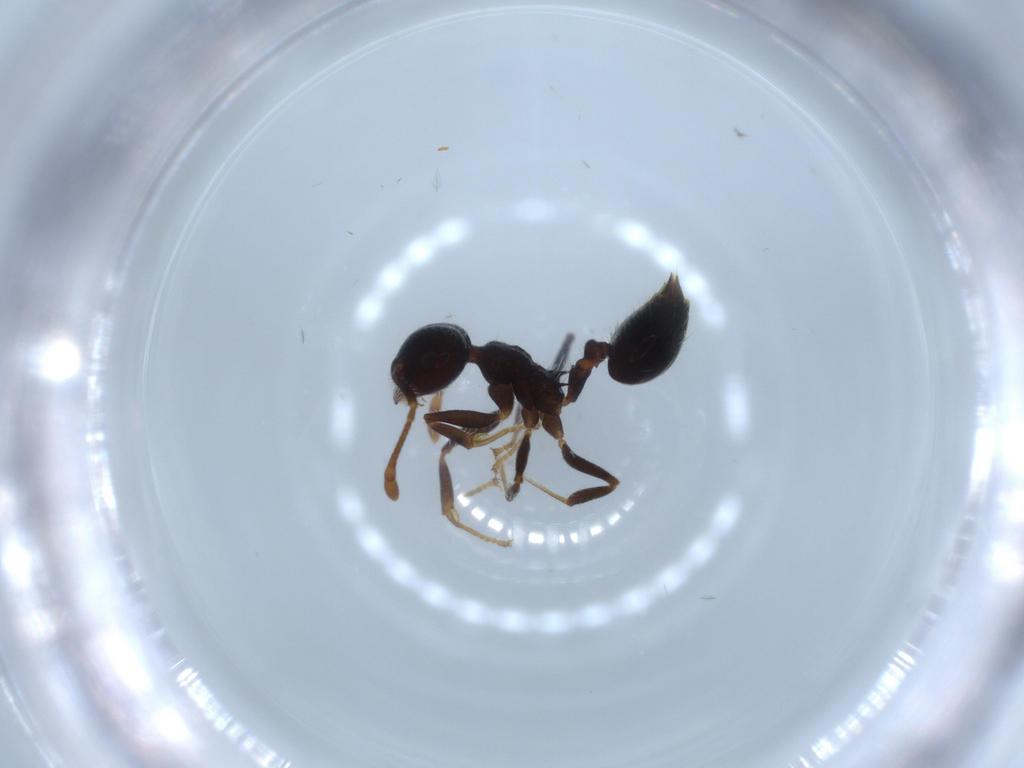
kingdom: Animalia
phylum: Arthropoda
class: Insecta
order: Hymenoptera
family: Formicidae
